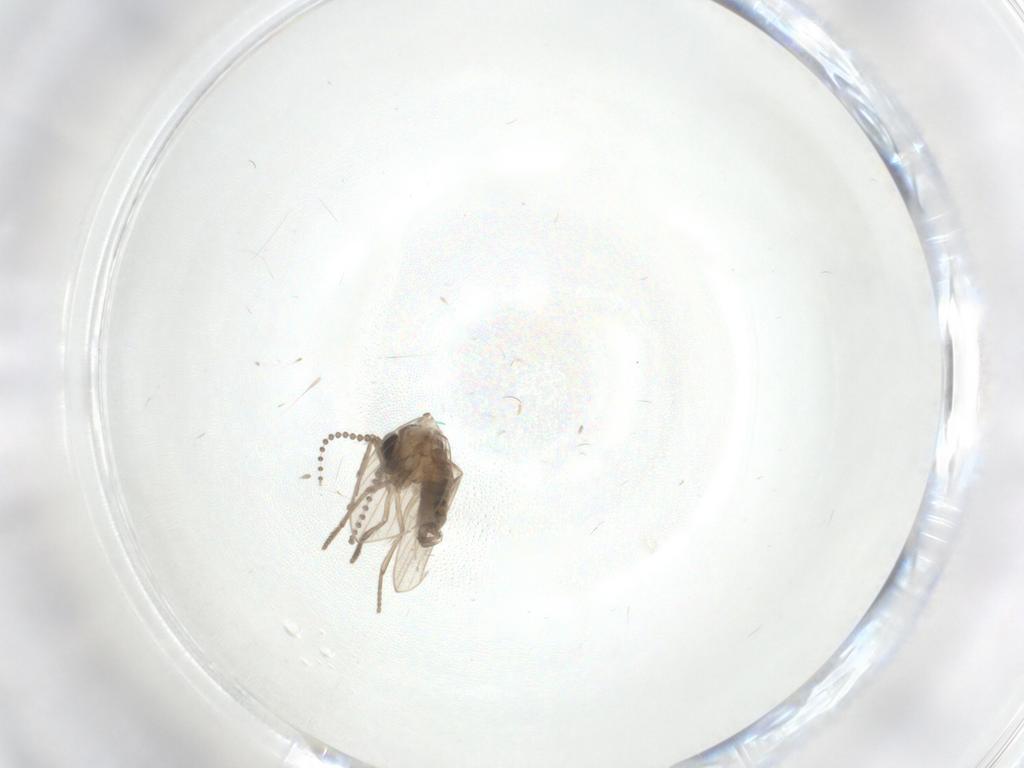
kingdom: Animalia
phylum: Arthropoda
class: Insecta
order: Diptera
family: Psychodidae
